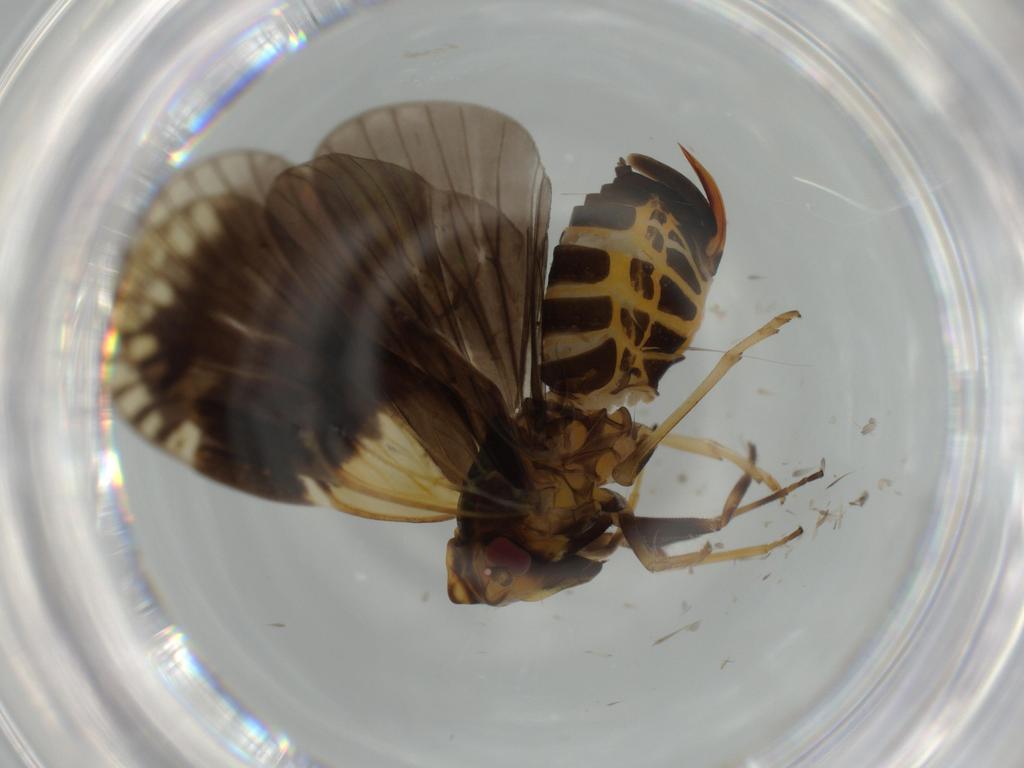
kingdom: Animalia
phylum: Arthropoda
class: Insecta
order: Hemiptera
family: Cixiidae
